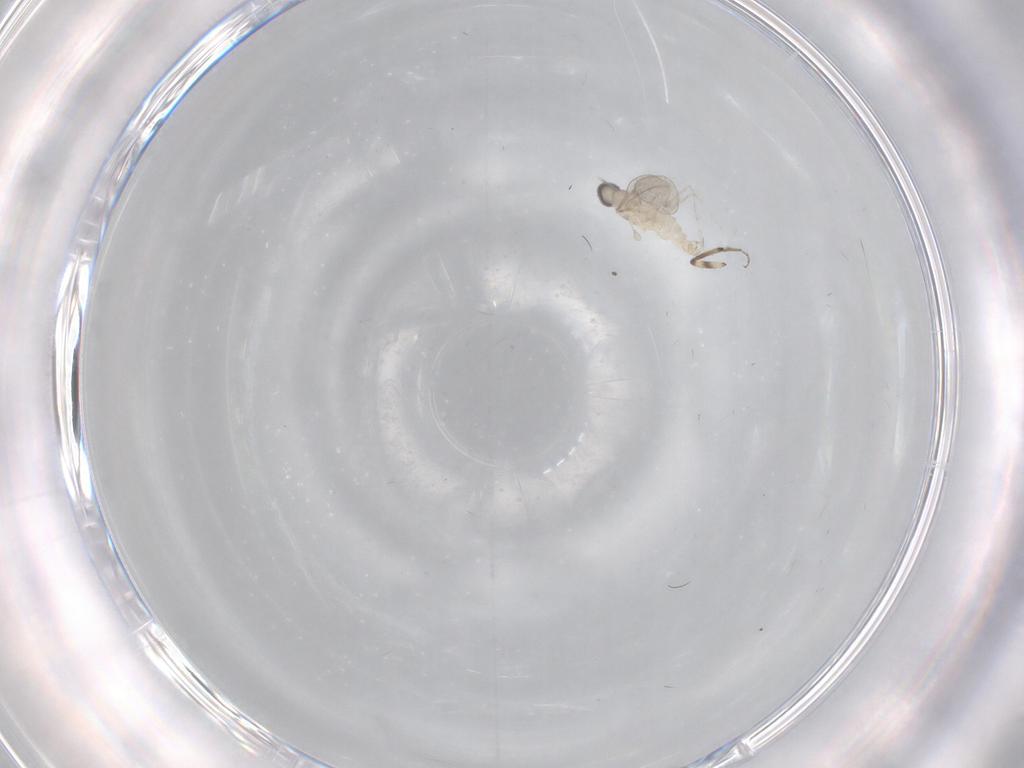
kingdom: Animalia
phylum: Arthropoda
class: Insecta
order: Diptera
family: Sciaridae
